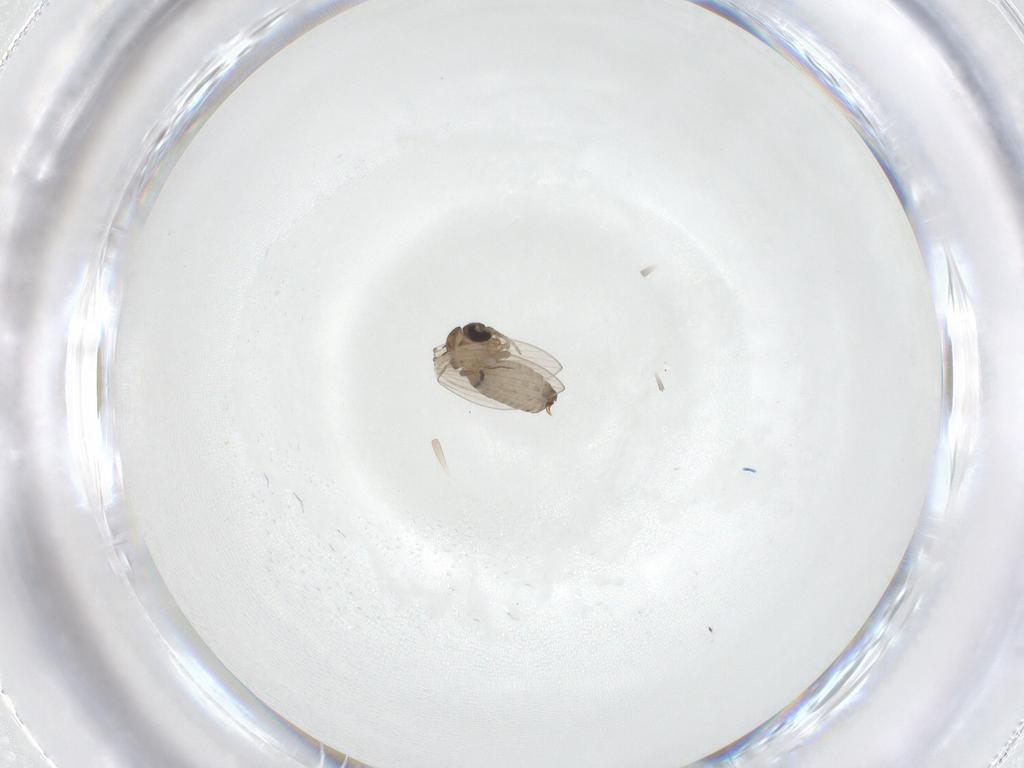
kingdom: Animalia
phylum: Arthropoda
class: Insecta
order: Diptera
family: Psychodidae
